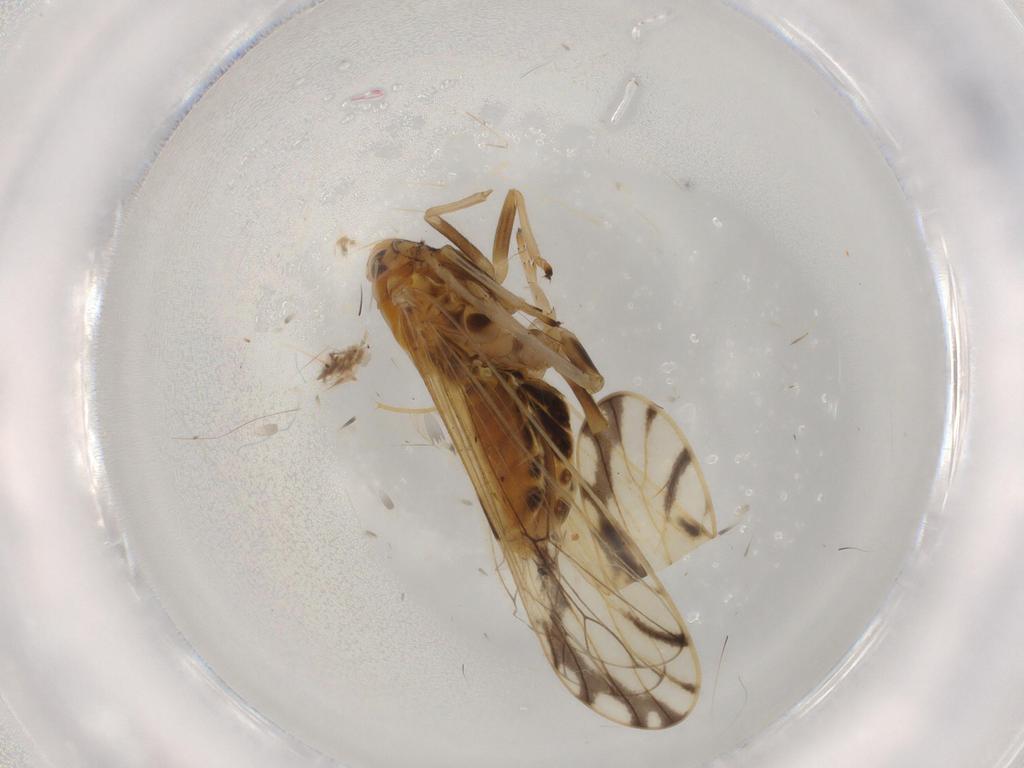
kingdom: Animalia
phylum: Arthropoda
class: Insecta
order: Hemiptera
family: Delphacidae
